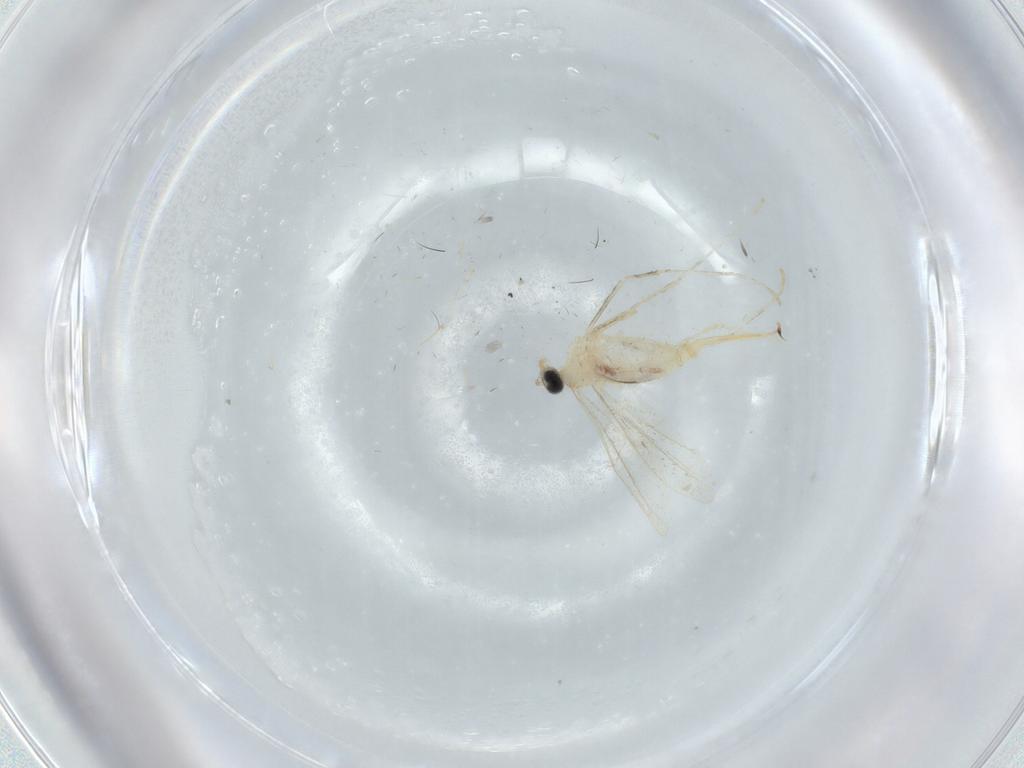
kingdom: Animalia
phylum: Arthropoda
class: Insecta
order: Diptera
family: Cecidomyiidae
